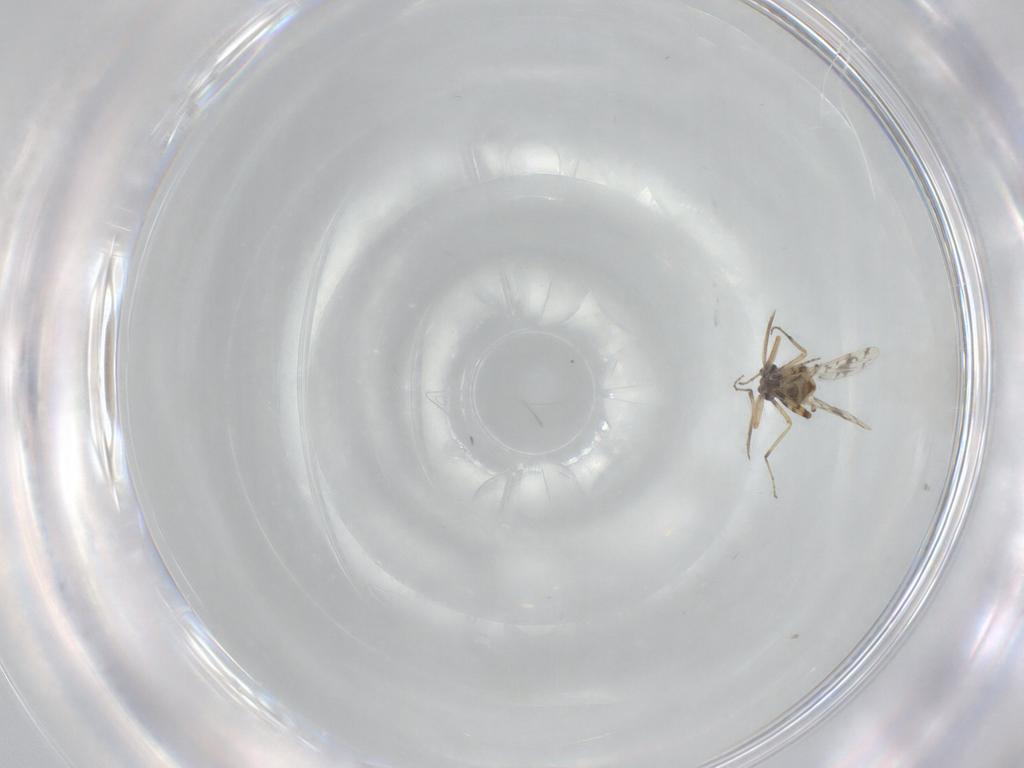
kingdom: Animalia
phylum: Arthropoda
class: Insecta
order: Diptera
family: Ceratopogonidae
